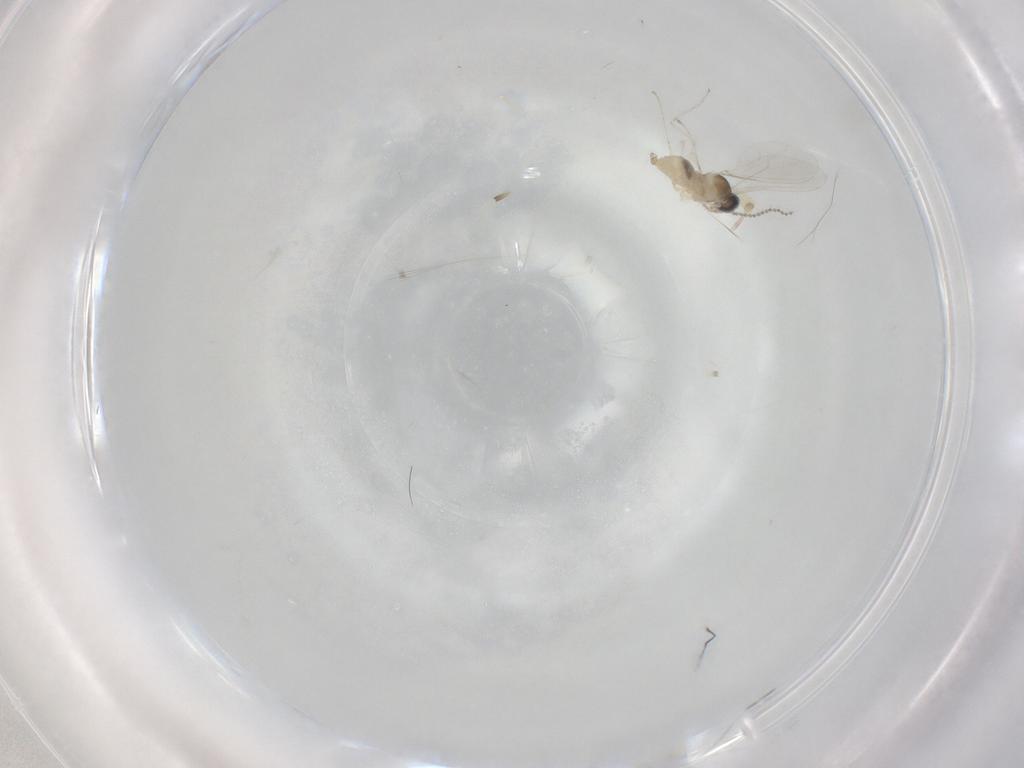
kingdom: Animalia
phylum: Arthropoda
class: Insecta
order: Diptera
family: Cecidomyiidae
